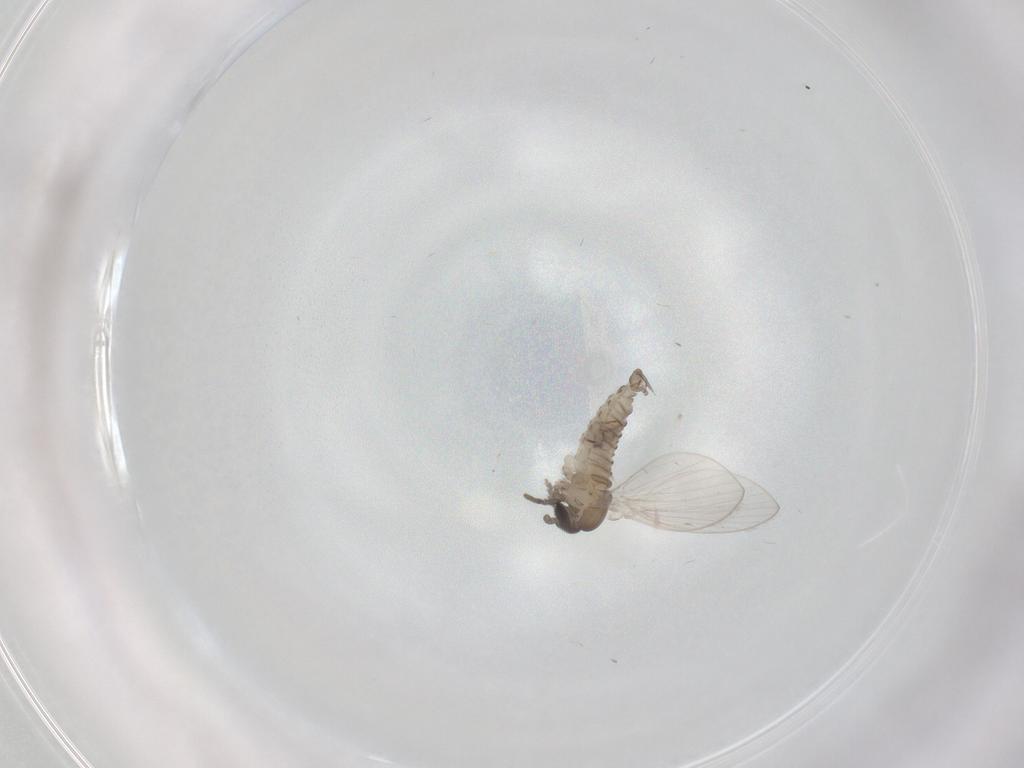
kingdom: Animalia
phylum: Arthropoda
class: Insecta
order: Diptera
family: Psychodidae
